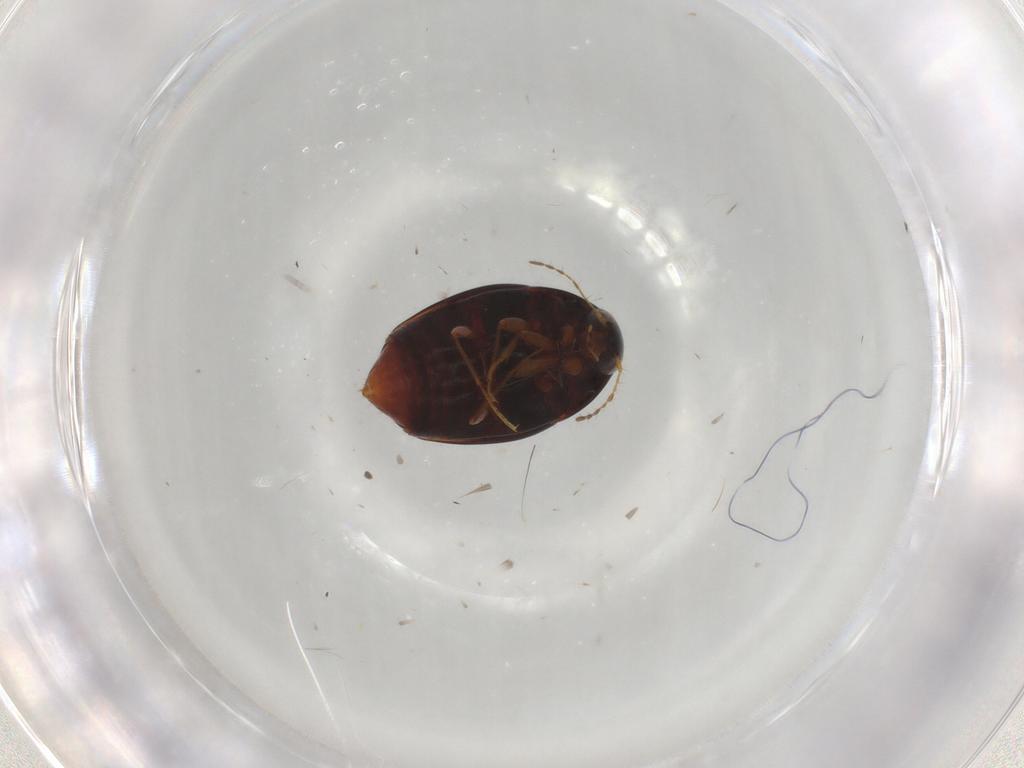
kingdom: Animalia
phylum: Arthropoda
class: Insecta
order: Coleoptera
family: Staphylinidae
